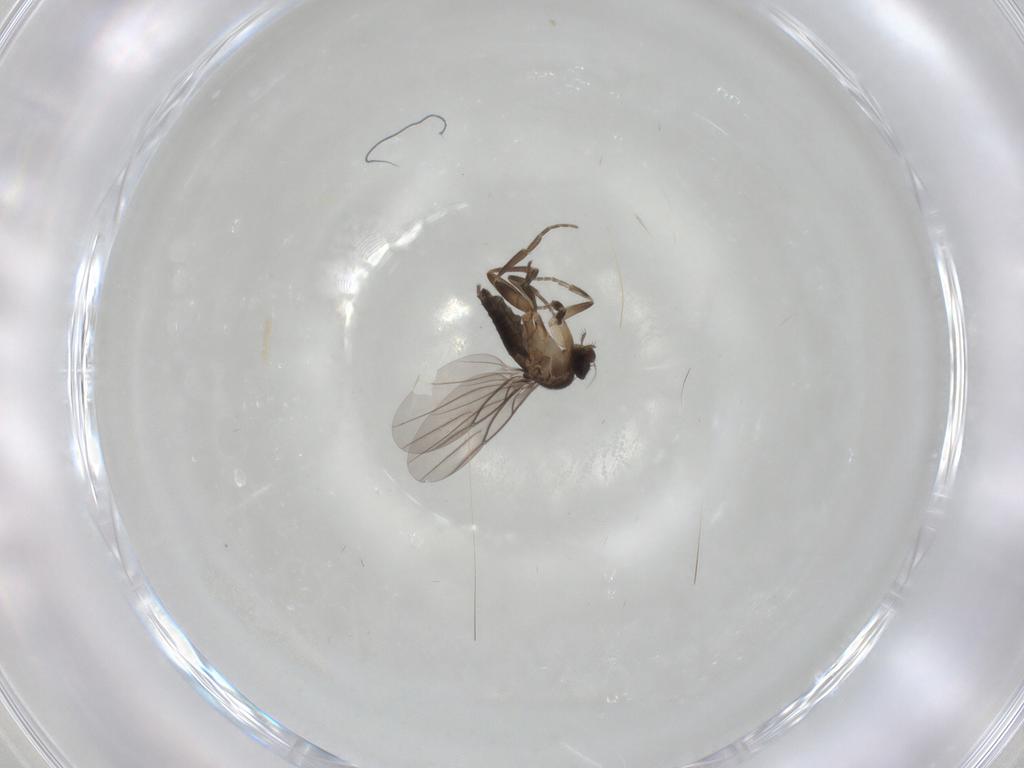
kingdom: Animalia
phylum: Arthropoda
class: Insecta
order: Diptera
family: Phoridae
